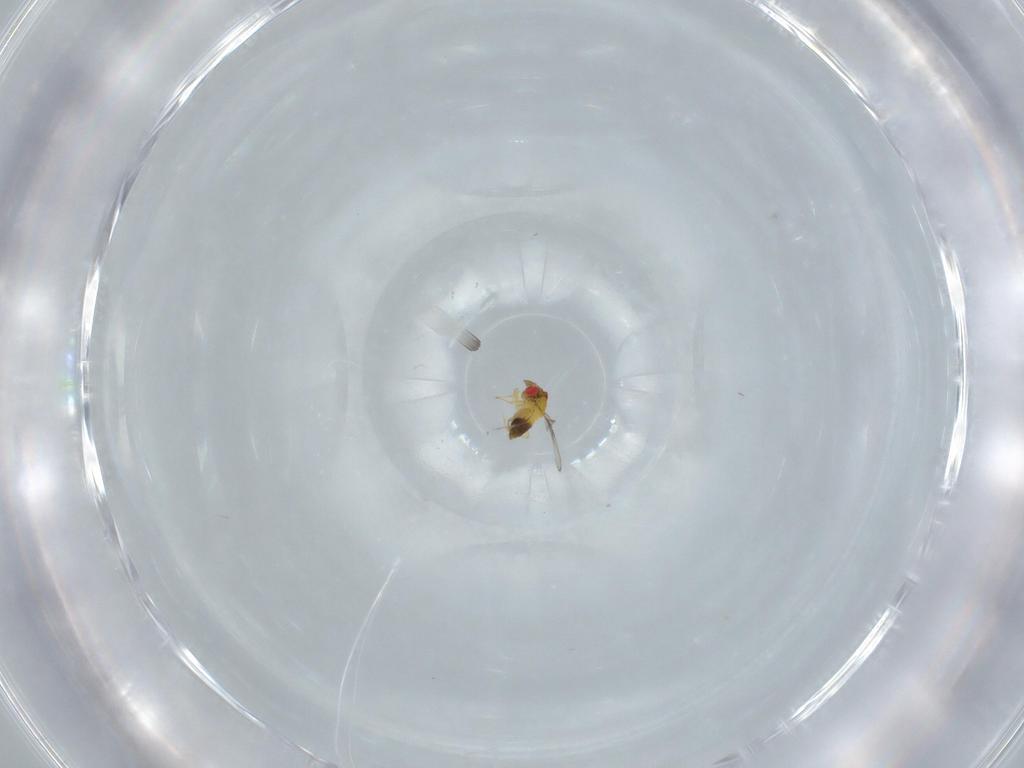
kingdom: Animalia
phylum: Arthropoda
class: Insecta
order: Hymenoptera
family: Trichogrammatidae
